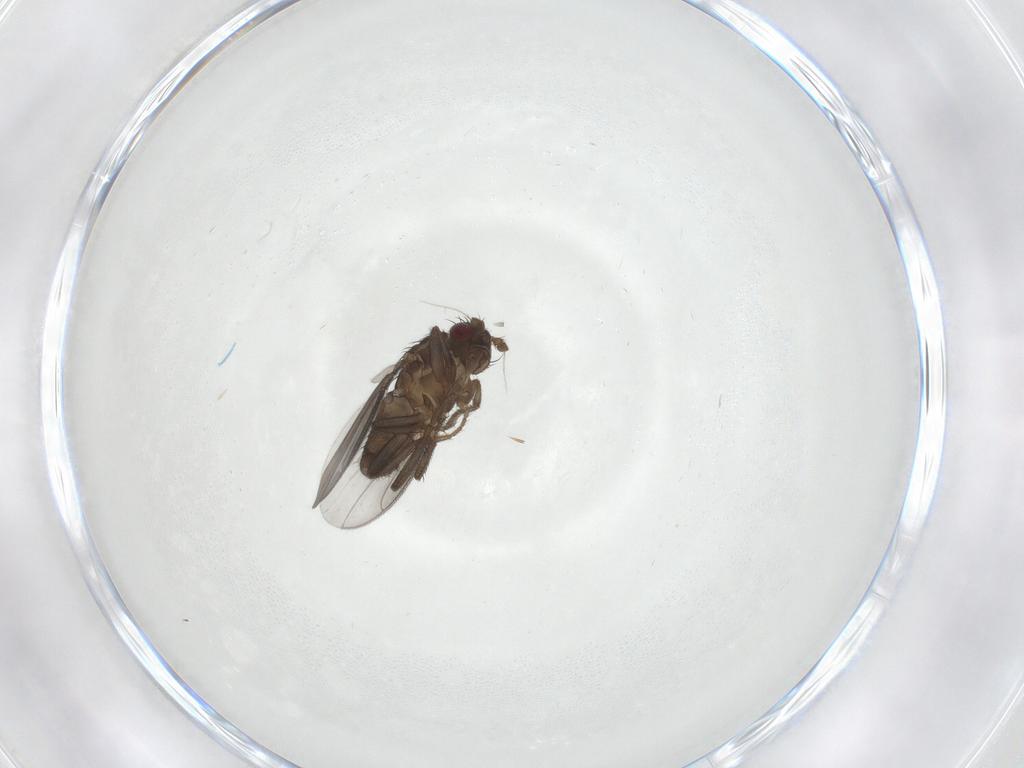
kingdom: Animalia
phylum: Arthropoda
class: Insecta
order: Diptera
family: Sphaeroceridae
